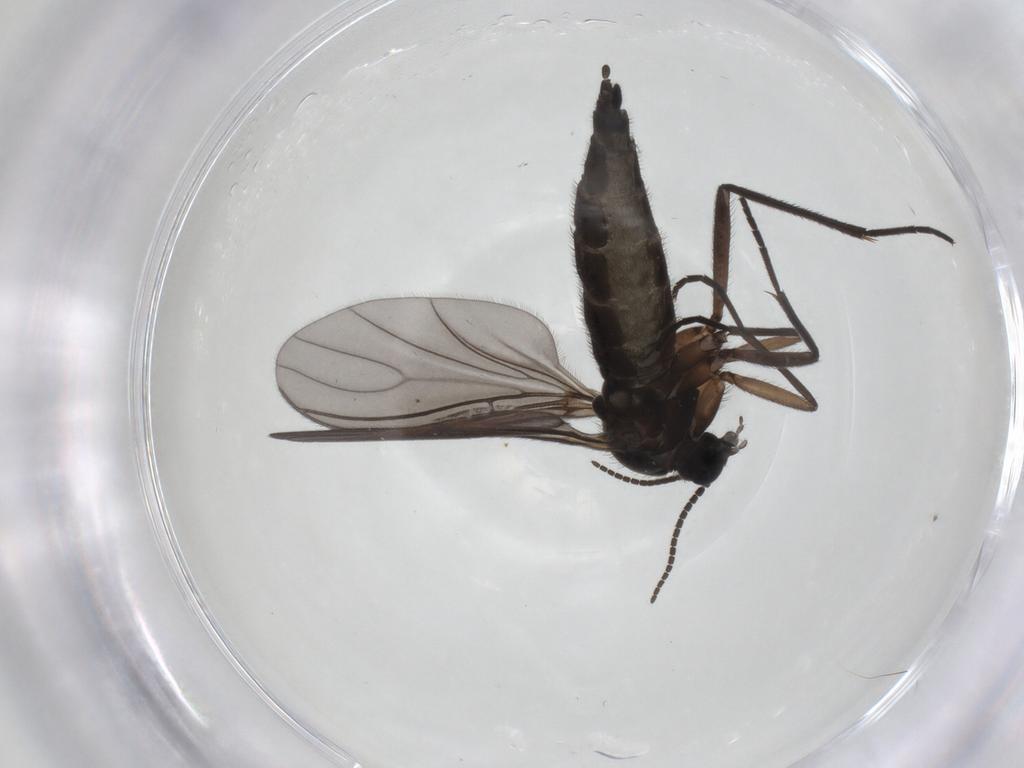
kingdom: Animalia
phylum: Arthropoda
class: Insecta
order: Diptera
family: Sciaridae
